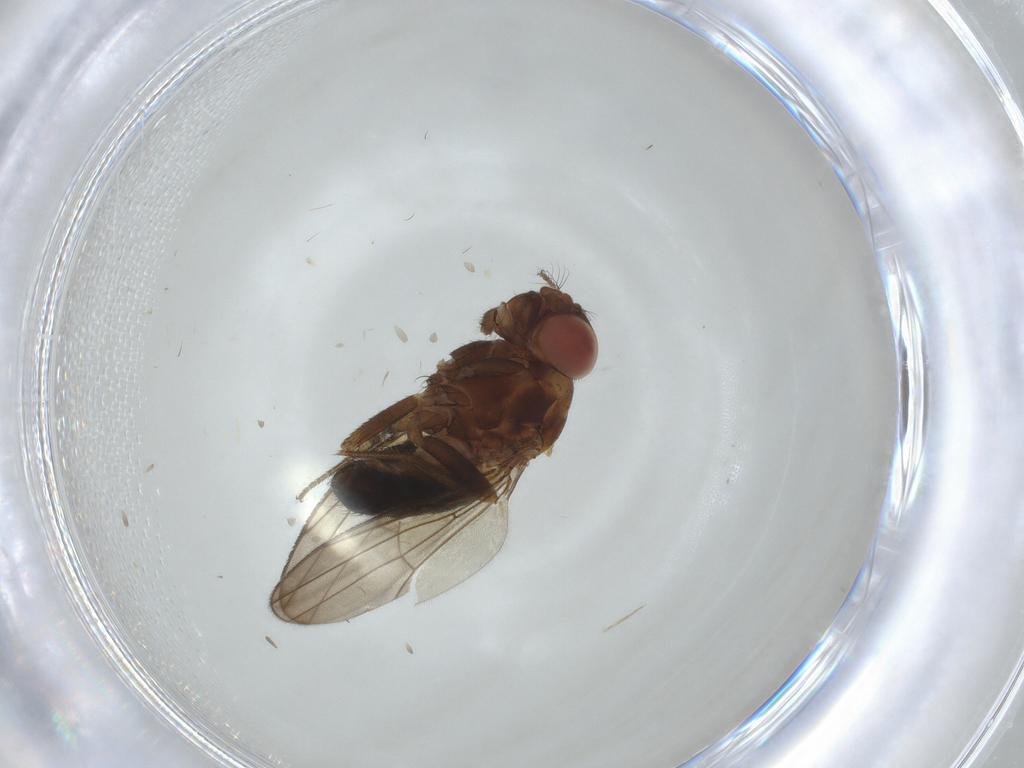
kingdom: Animalia
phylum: Arthropoda
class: Insecta
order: Diptera
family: Drosophilidae
